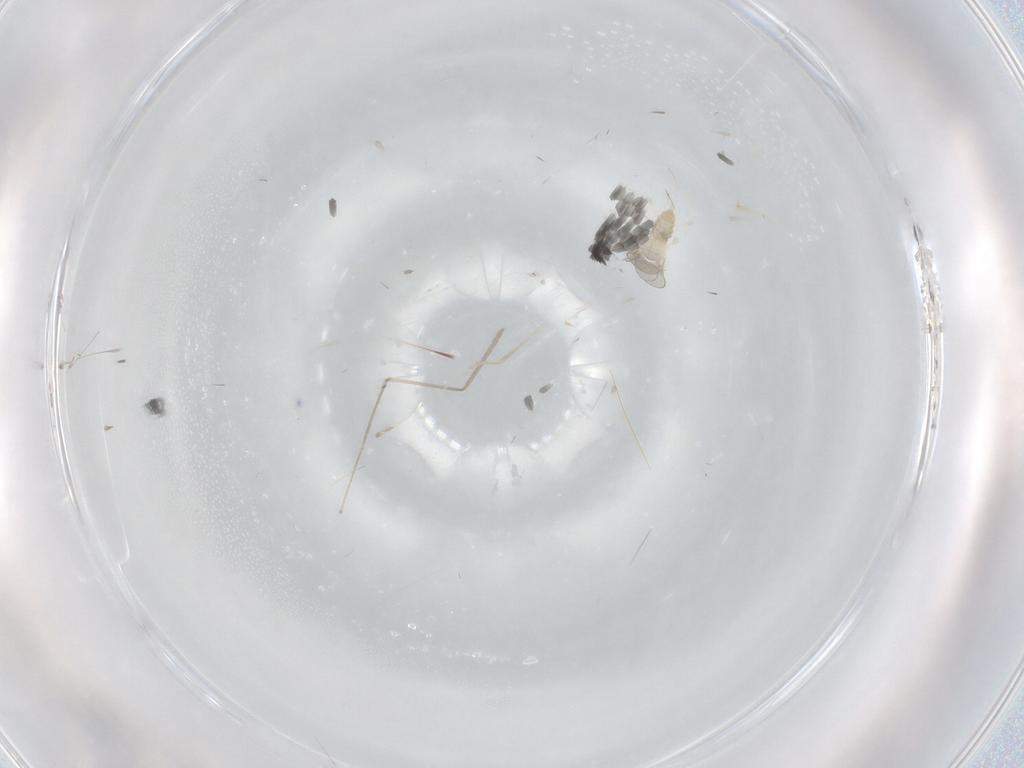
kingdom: Animalia
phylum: Arthropoda
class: Insecta
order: Diptera
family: Cecidomyiidae
